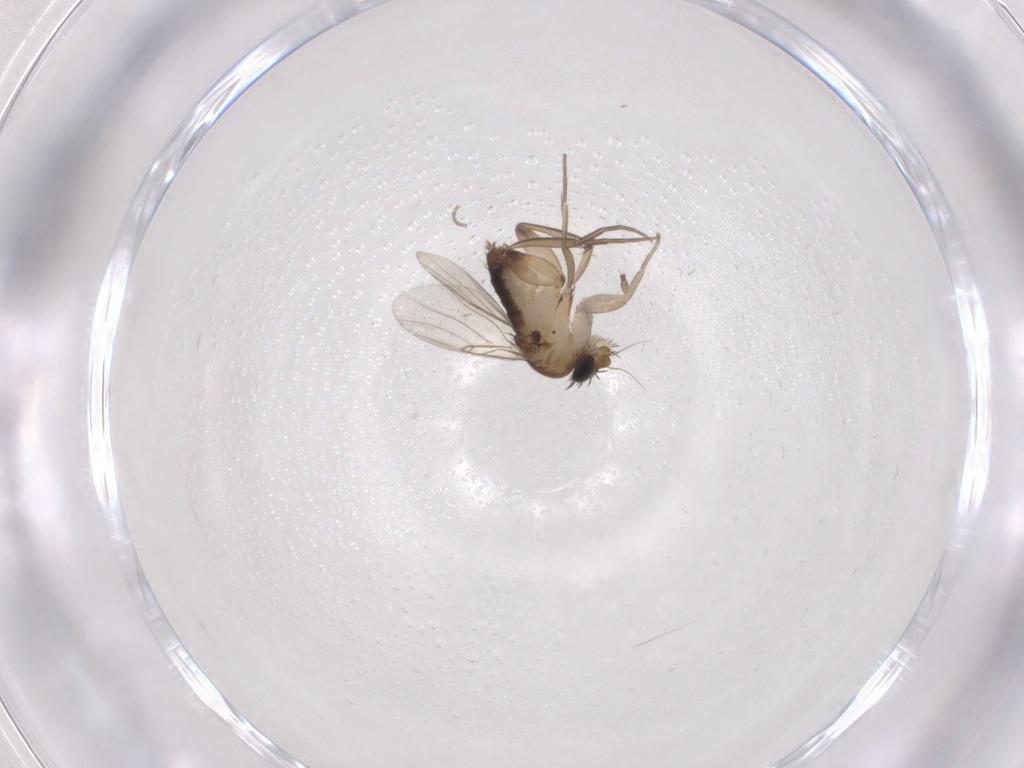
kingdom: Animalia
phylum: Arthropoda
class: Insecta
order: Diptera
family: Phoridae
